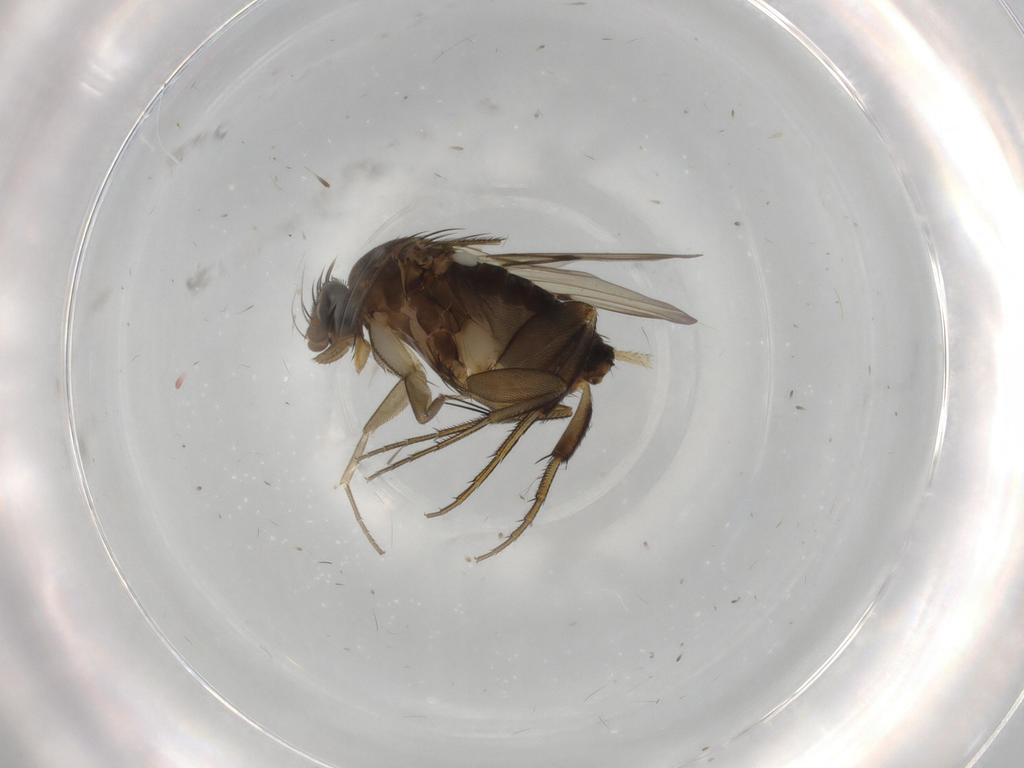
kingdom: Animalia
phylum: Arthropoda
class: Insecta
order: Diptera
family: Phoridae
